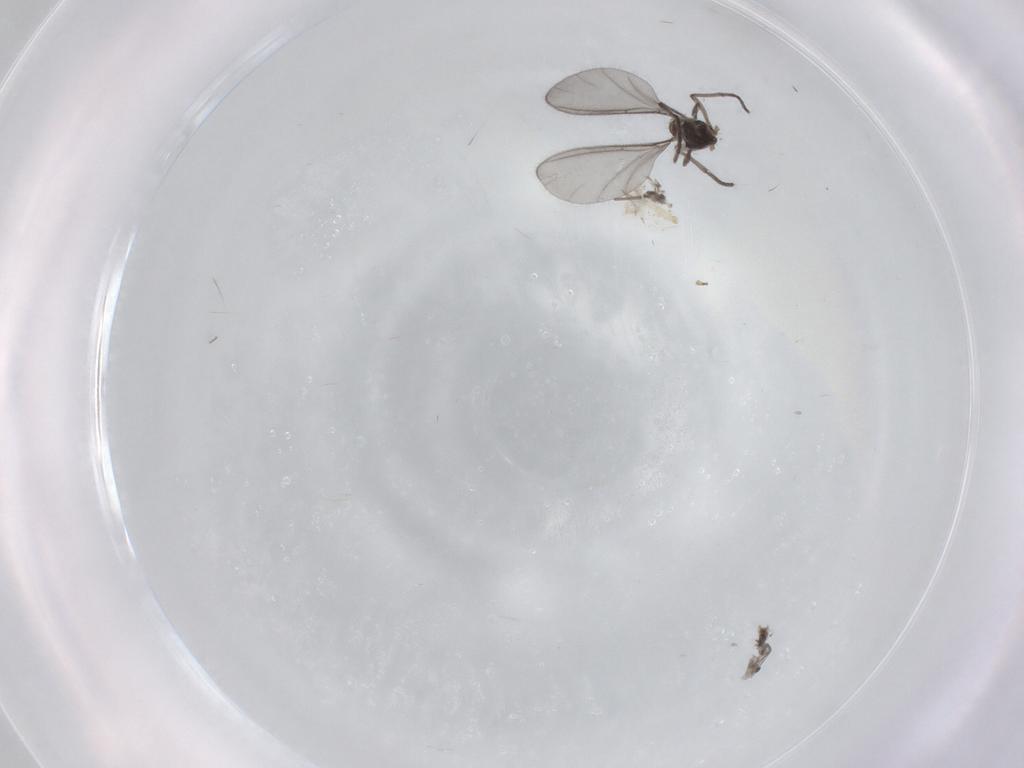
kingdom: Animalia
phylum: Arthropoda
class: Insecta
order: Diptera
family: Sciaridae
